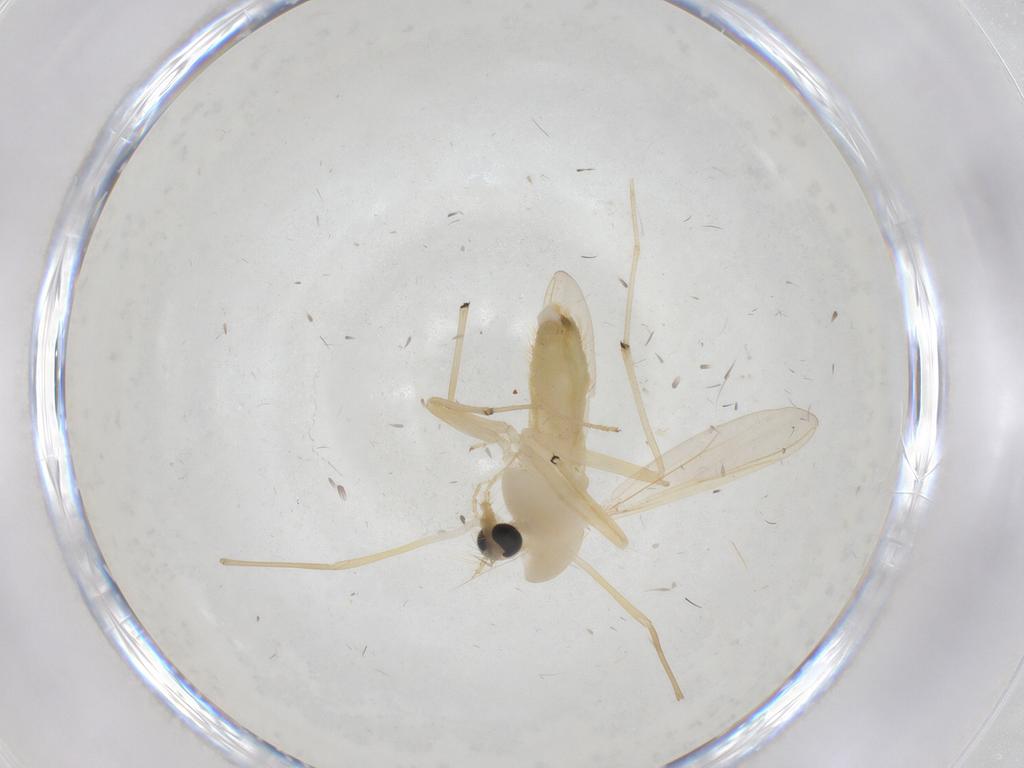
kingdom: Animalia
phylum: Arthropoda
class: Insecta
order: Diptera
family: Chironomidae
